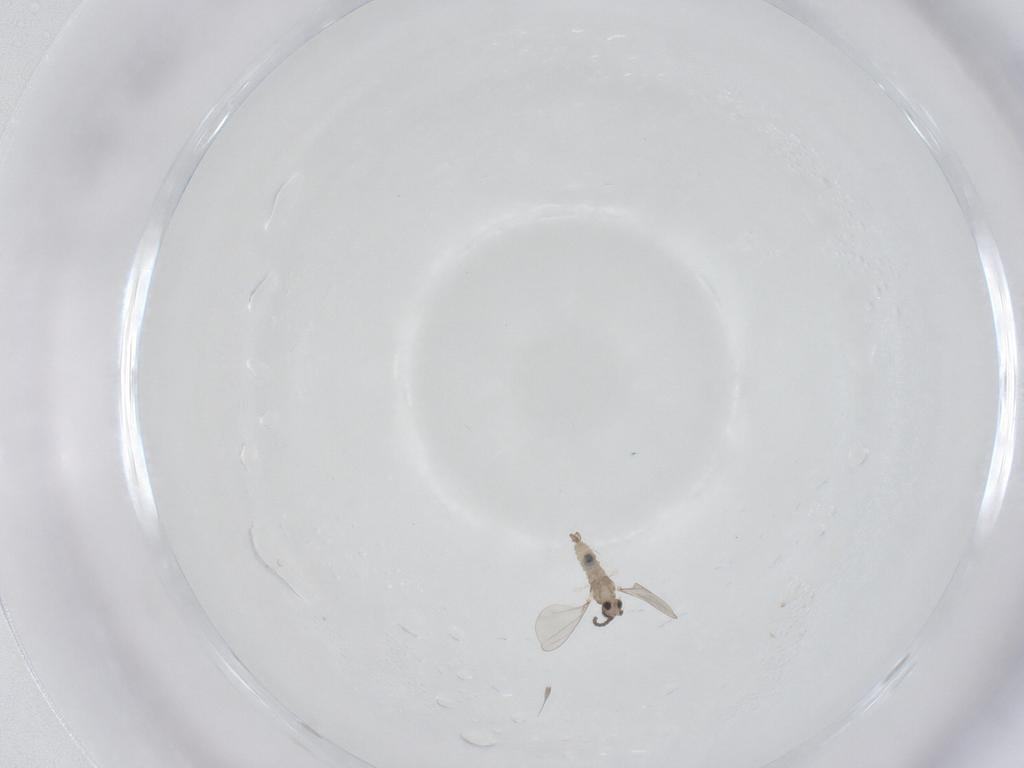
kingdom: Animalia
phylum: Arthropoda
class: Insecta
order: Diptera
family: Cecidomyiidae
